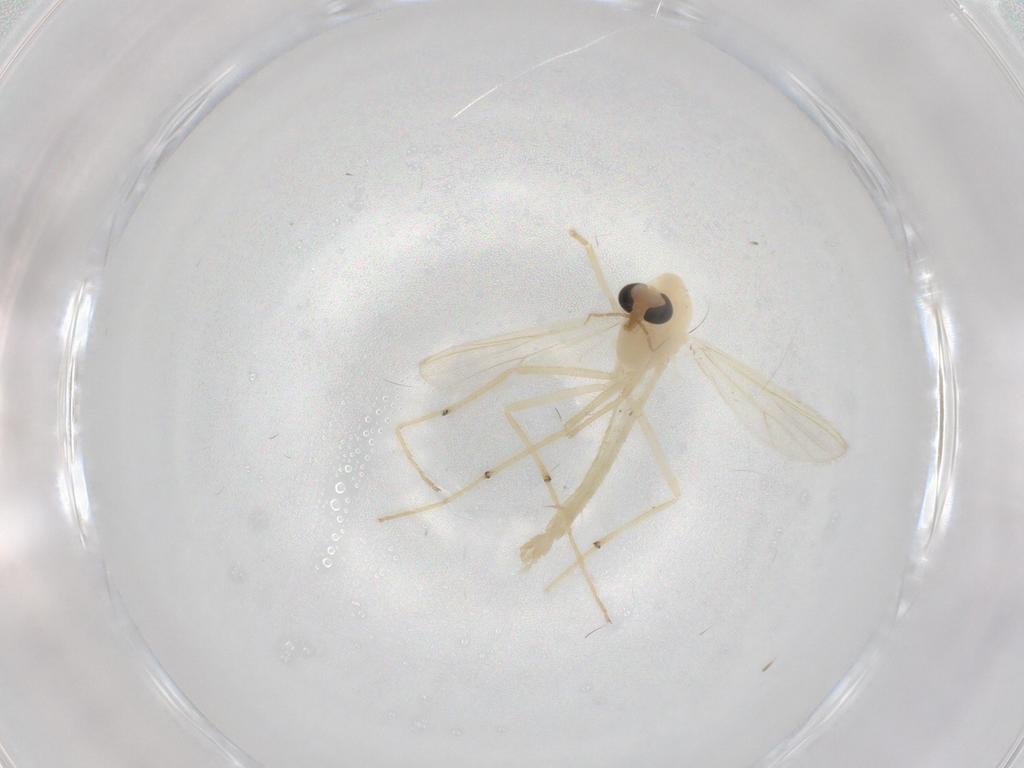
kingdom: Animalia
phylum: Arthropoda
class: Insecta
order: Diptera
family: Chironomidae
